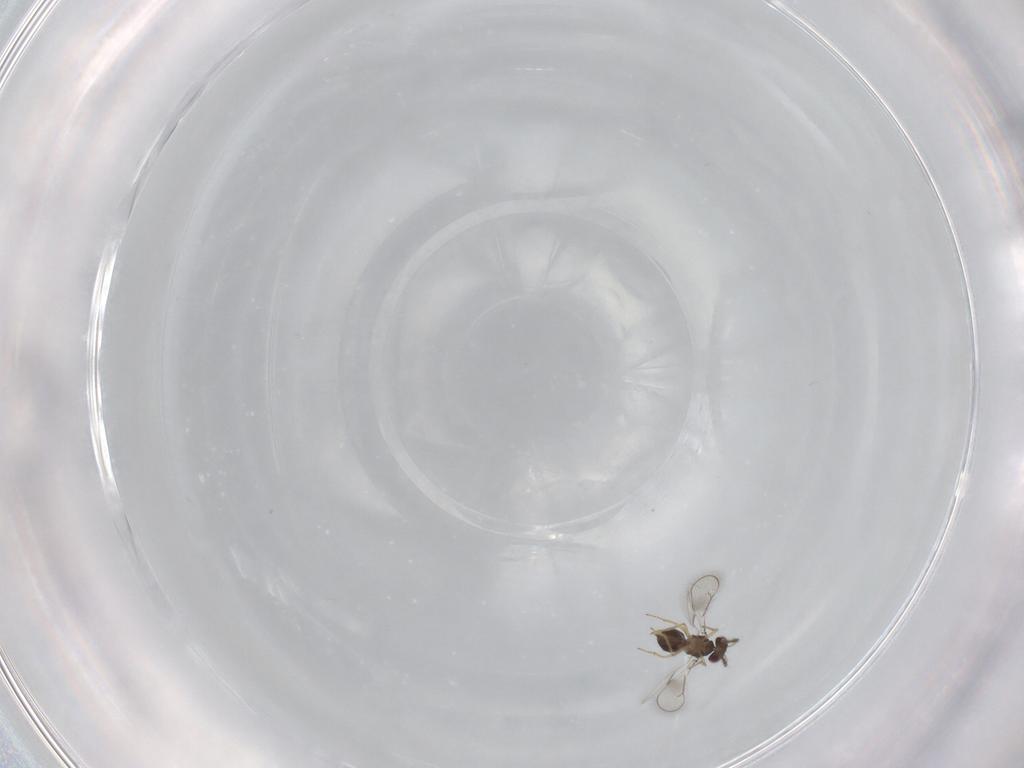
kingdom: Animalia
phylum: Arthropoda
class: Insecta
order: Hymenoptera
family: Eulophidae
